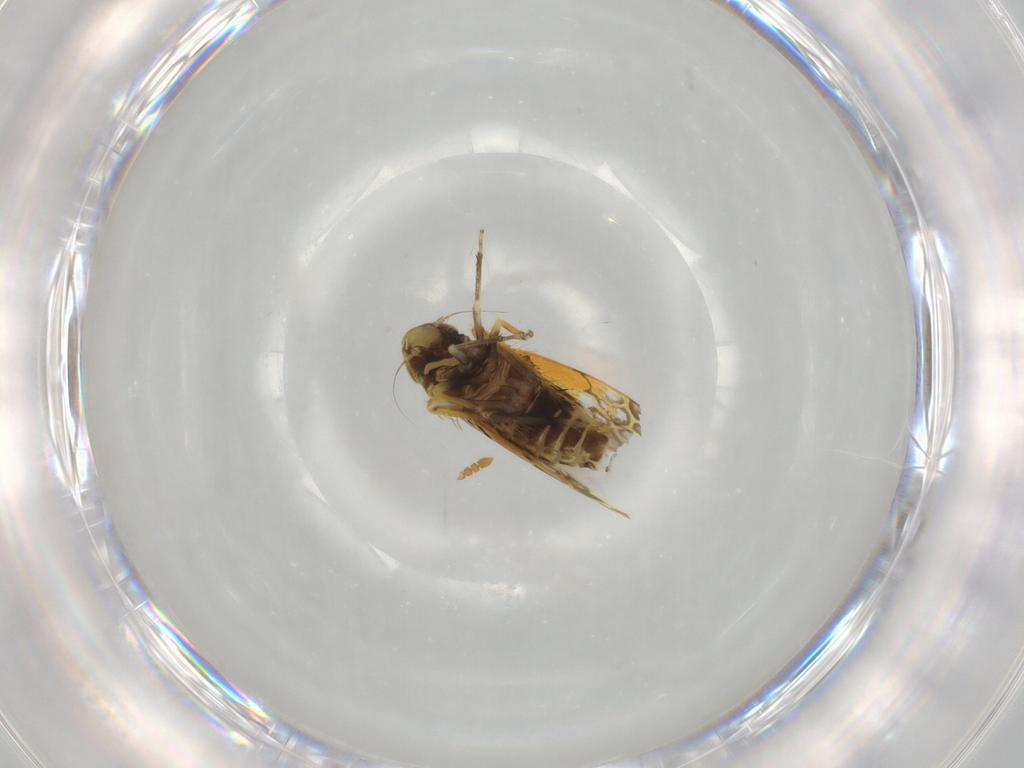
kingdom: Animalia
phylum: Arthropoda
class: Insecta
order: Hemiptera
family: Cicadellidae
